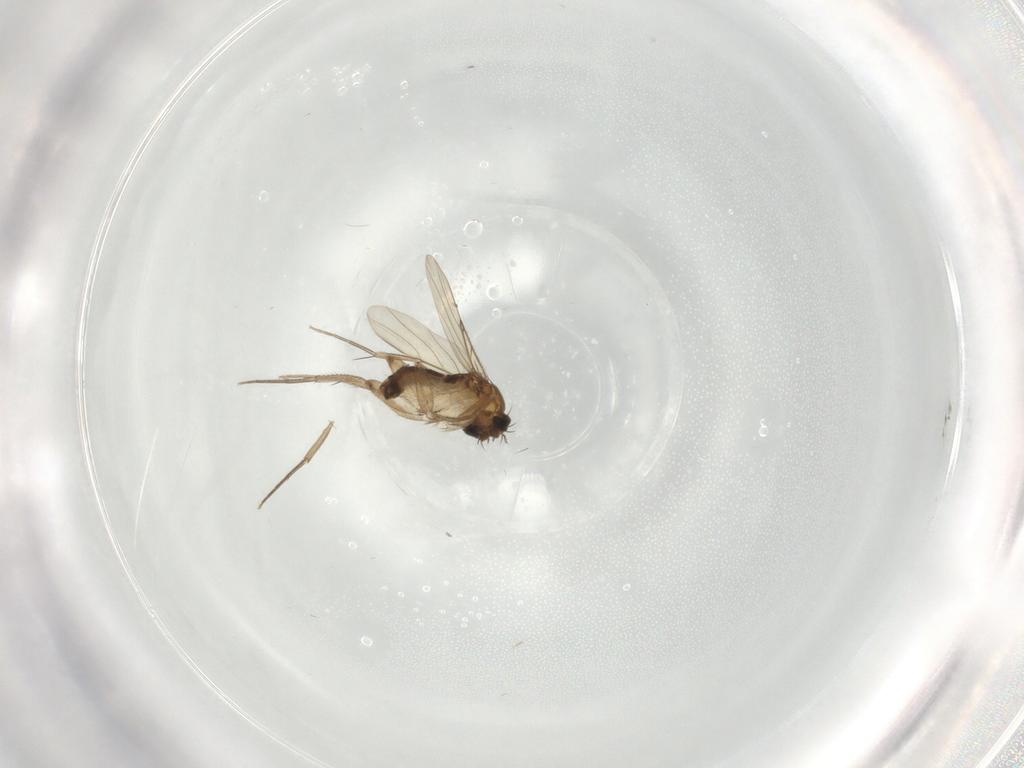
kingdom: Animalia
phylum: Arthropoda
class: Insecta
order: Diptera
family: Phoridae
